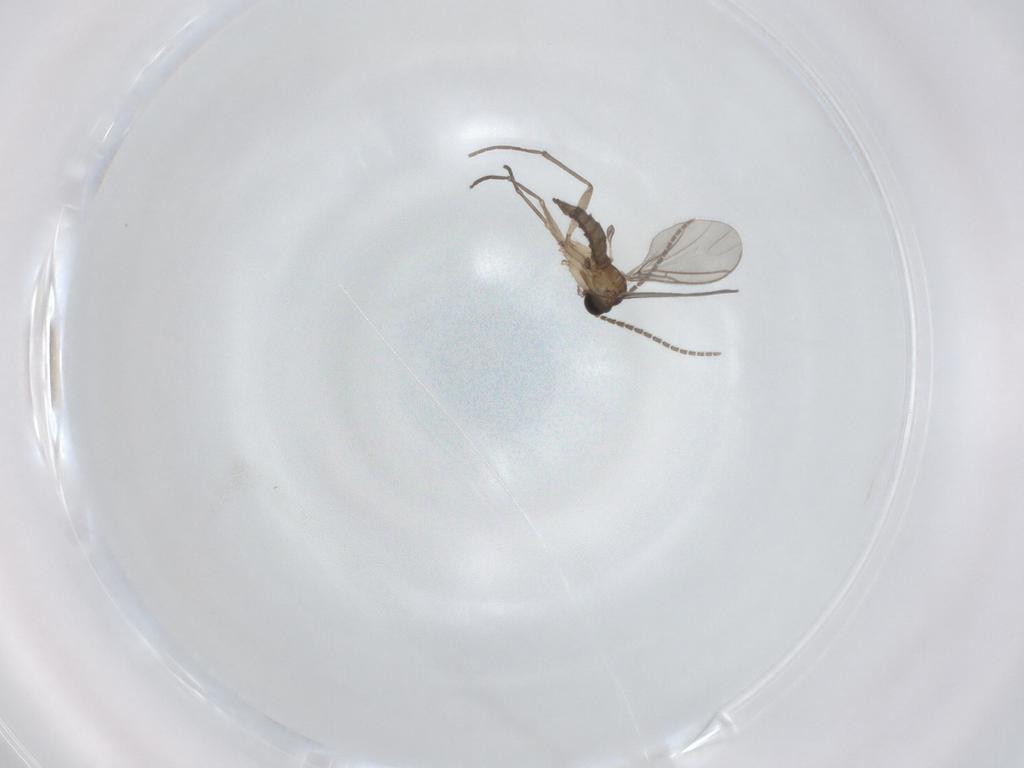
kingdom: Animalia
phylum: Arthropoda
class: Insecta
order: Diptera
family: Sciaridae
